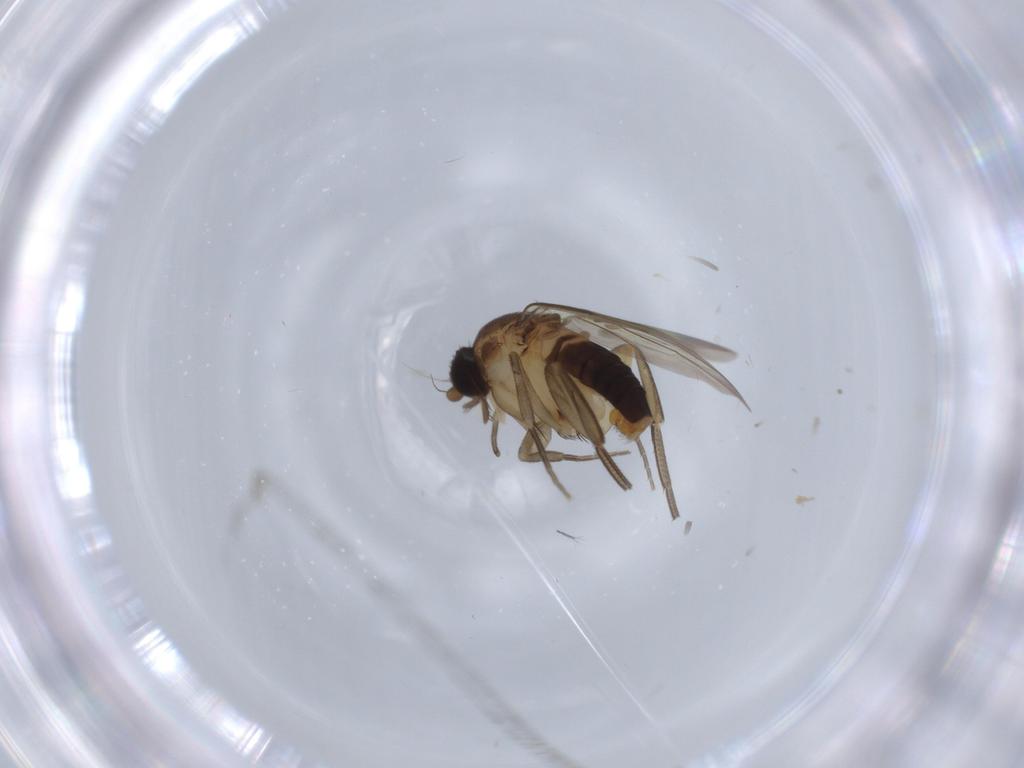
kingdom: Animalia
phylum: Arthropoda
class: Insecta
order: Diptera
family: Phoridae
